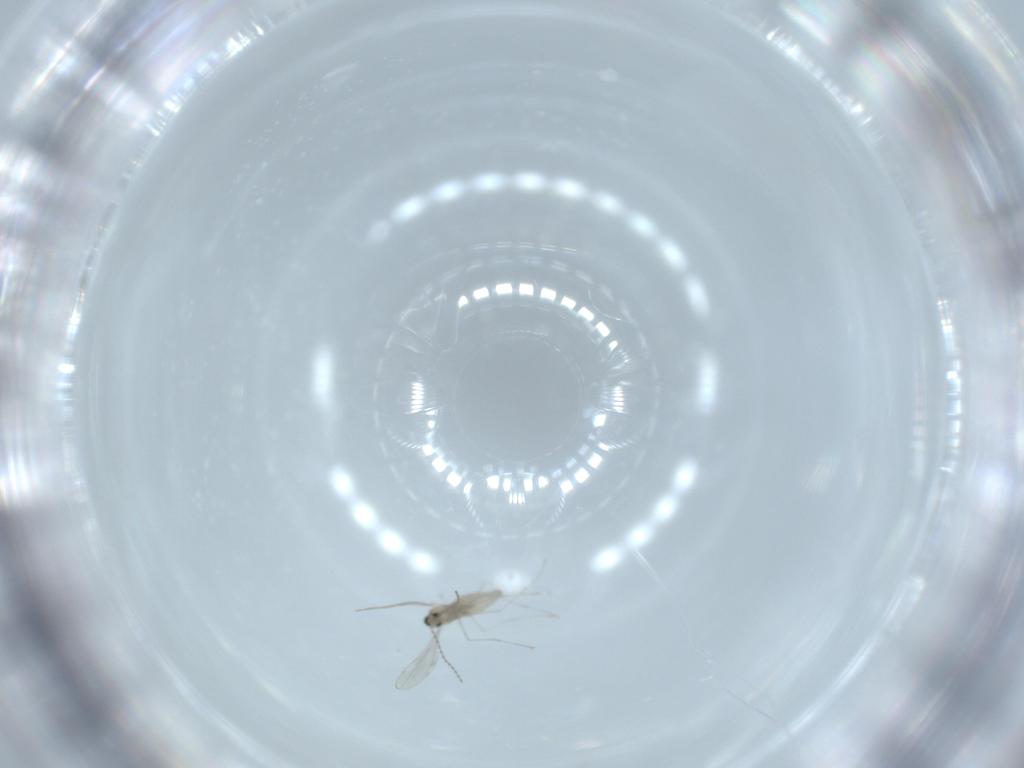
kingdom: Animalia
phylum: Arthropoda
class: Insecta
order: Diptera
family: Cecidomyiidae
